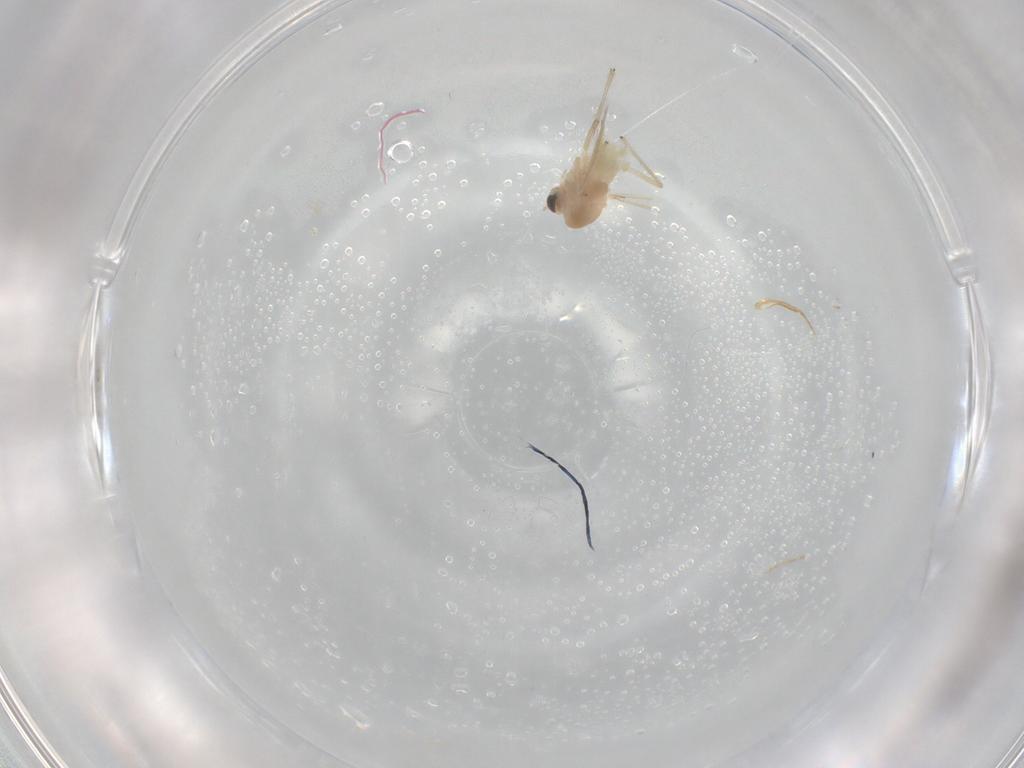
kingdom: Animalia
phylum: Arthropoda
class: Insecta
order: Diptera
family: Chironomidae
